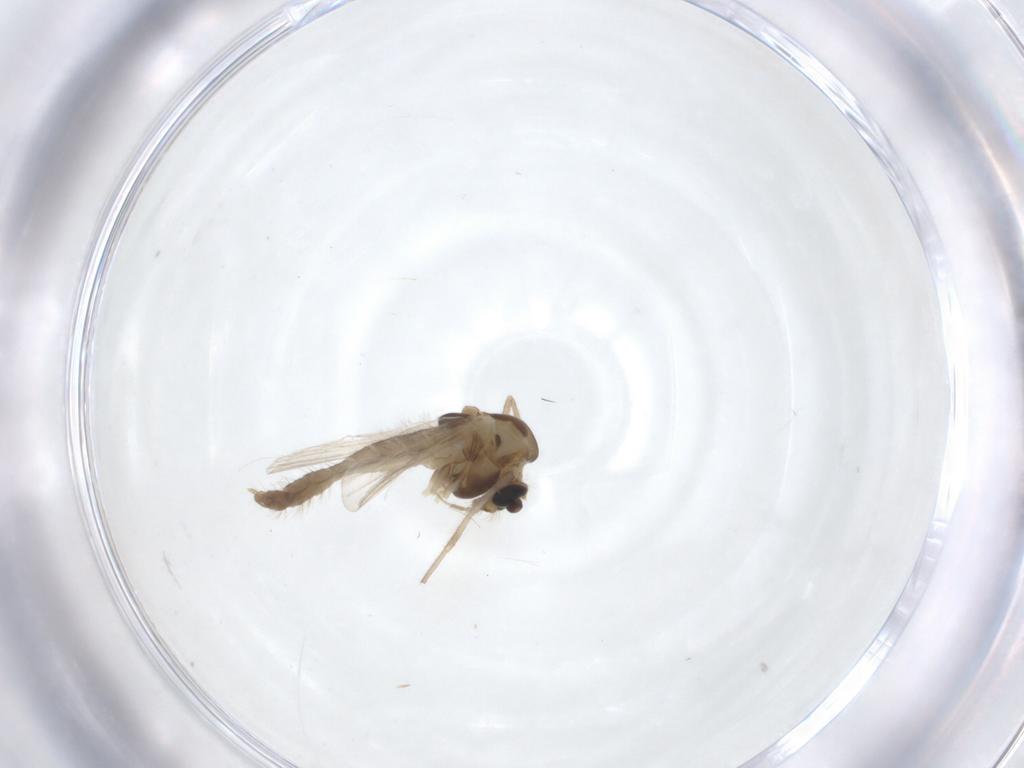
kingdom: Animalia
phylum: Arthropoda
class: Insecta
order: Diptera
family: Chironomidae
